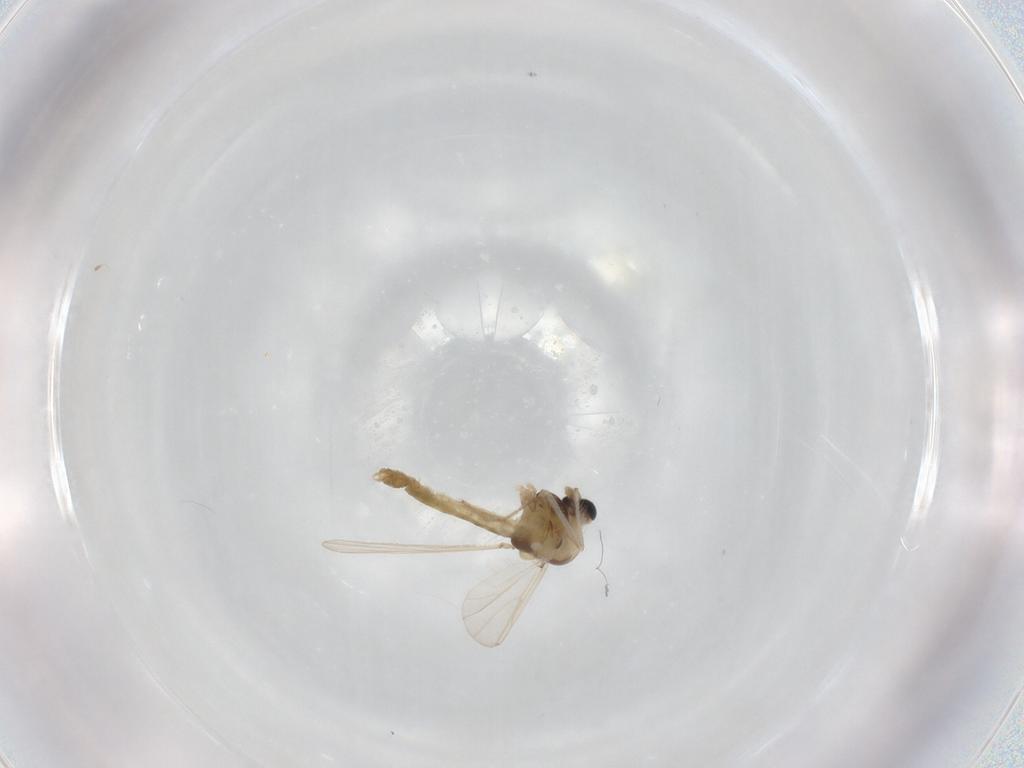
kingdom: Animalia
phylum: Arthropoda
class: Insecta
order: Diptera
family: Chironomidae
